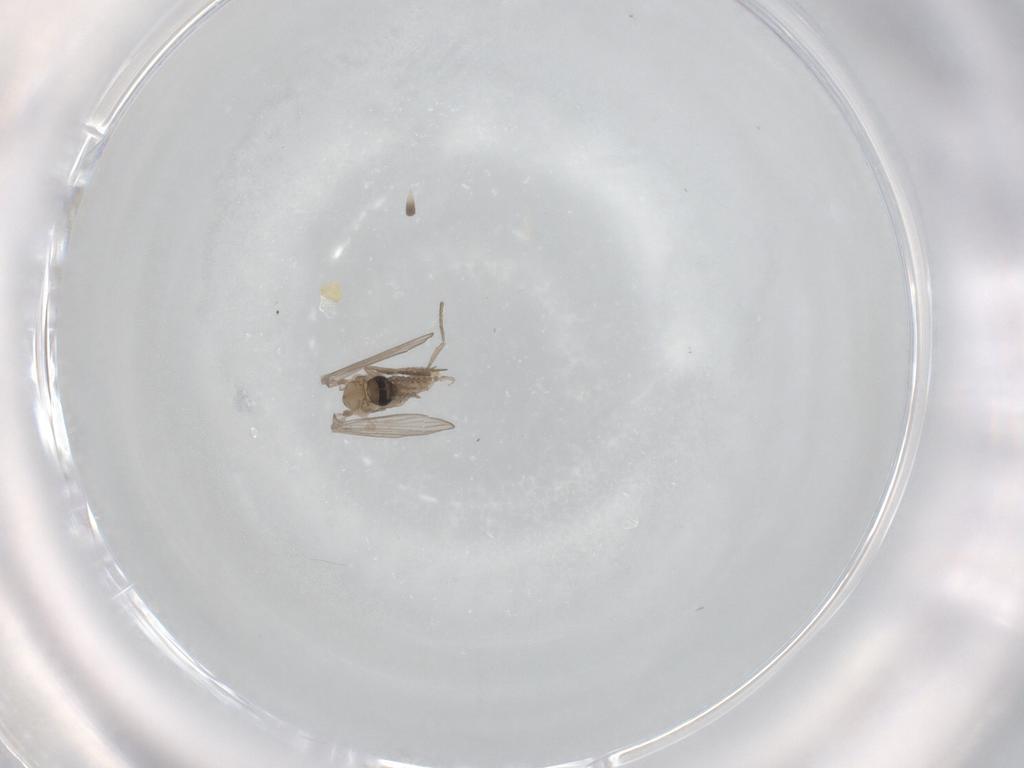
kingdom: Animalia
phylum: Arthropoda
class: Insecta
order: Diptera
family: Psychodidae
